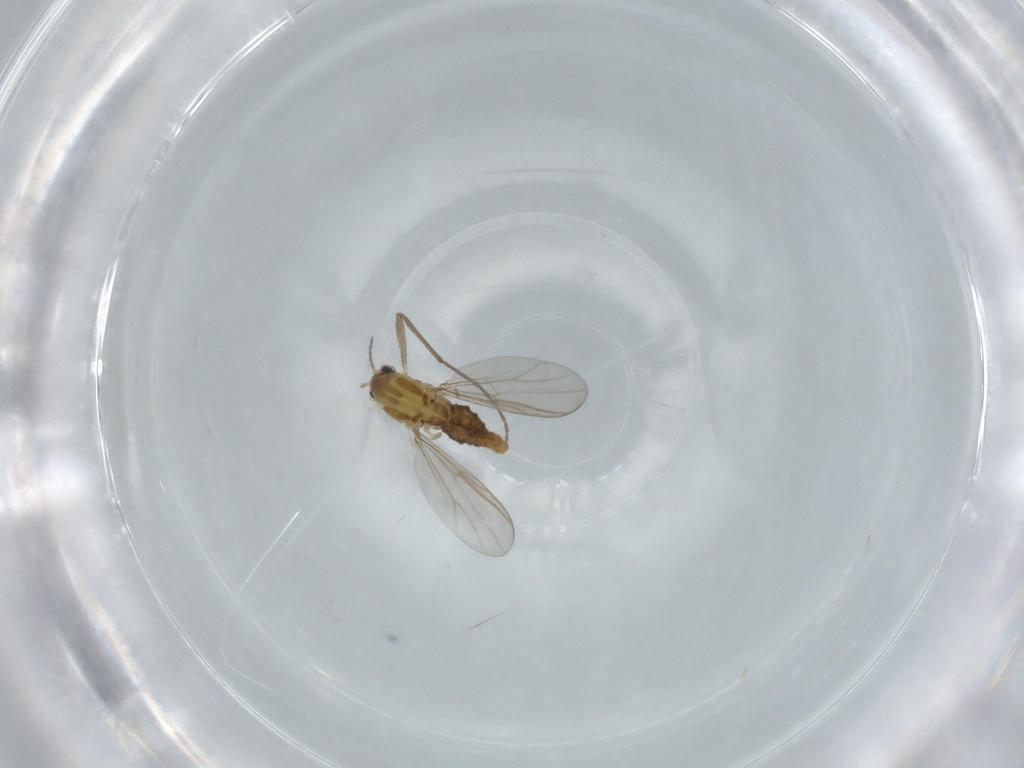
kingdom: Animalia
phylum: Arthropoda
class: Insecta
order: Diptera
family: Chironomidae
